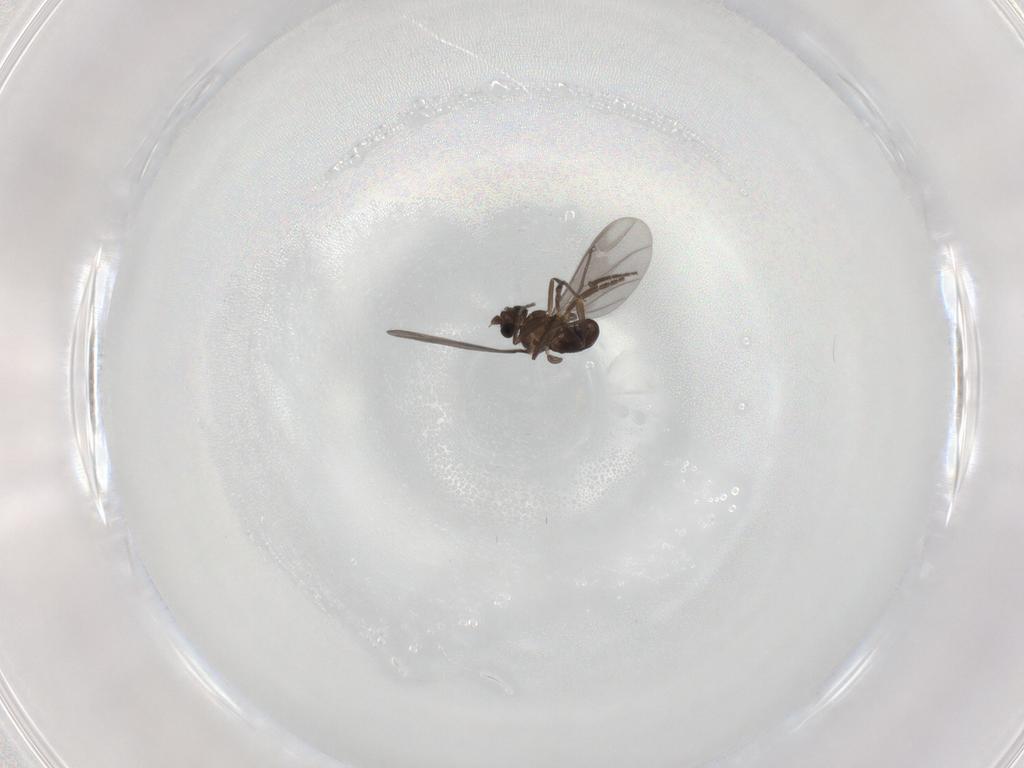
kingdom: Animalia
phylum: Arthropoda
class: Insecta
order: Diptera
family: Phoridae
